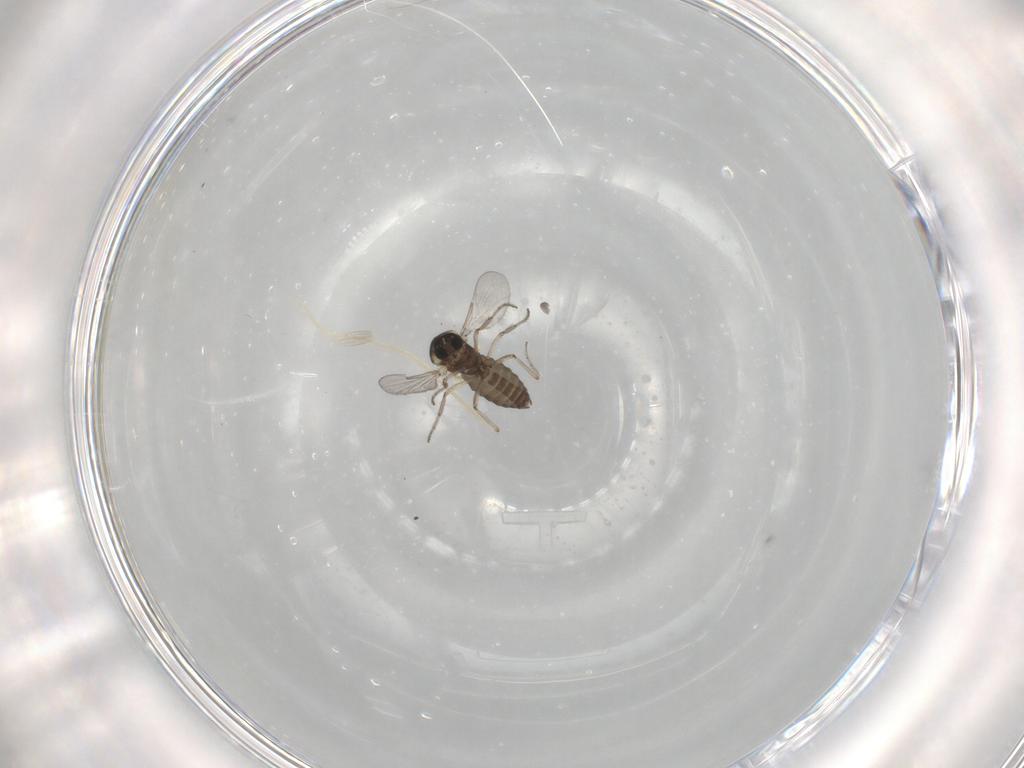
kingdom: Animalia
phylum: Arthropoda
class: Insecta
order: Diptera
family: Ceratopogonidae
